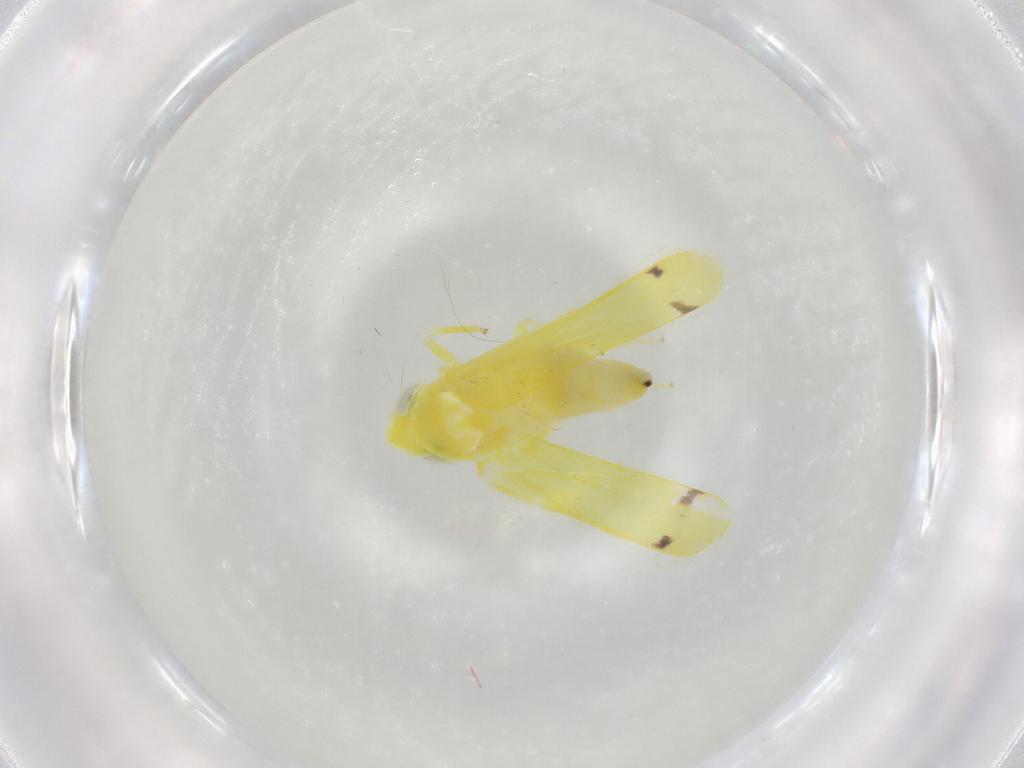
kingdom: Animalia
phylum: Arthropoda
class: Insecta
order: Hemiptera
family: Cicadellidae
